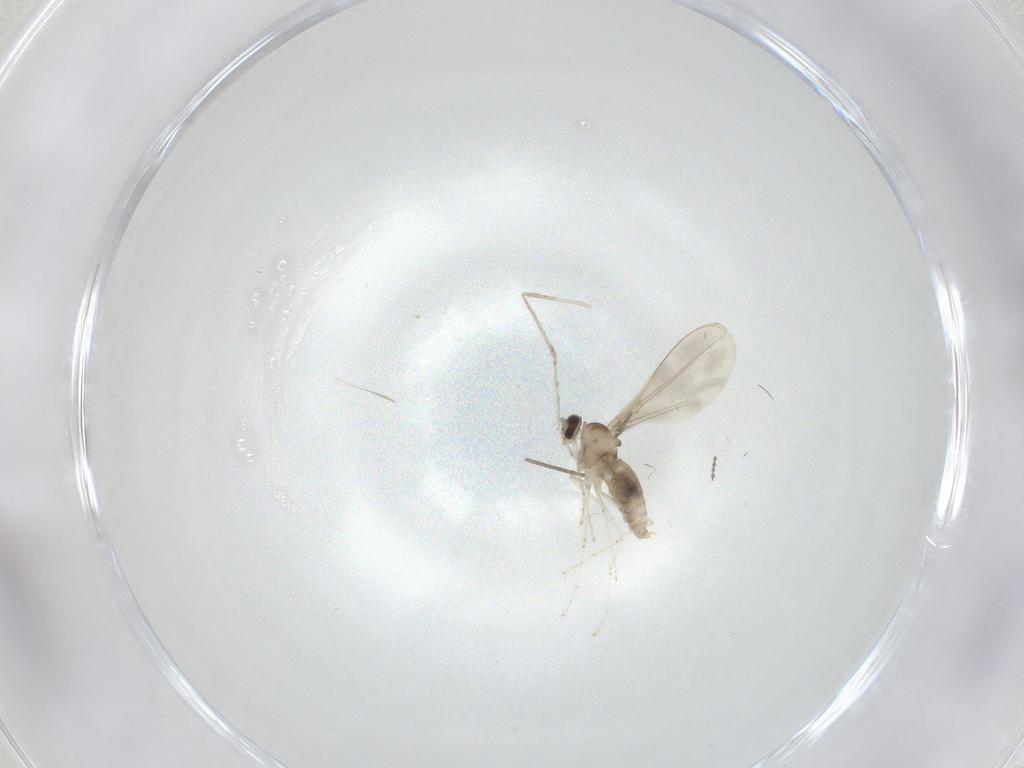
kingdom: Animalia
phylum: Arthropoda
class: Insecta
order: Diptera
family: Cecidomyiidae
